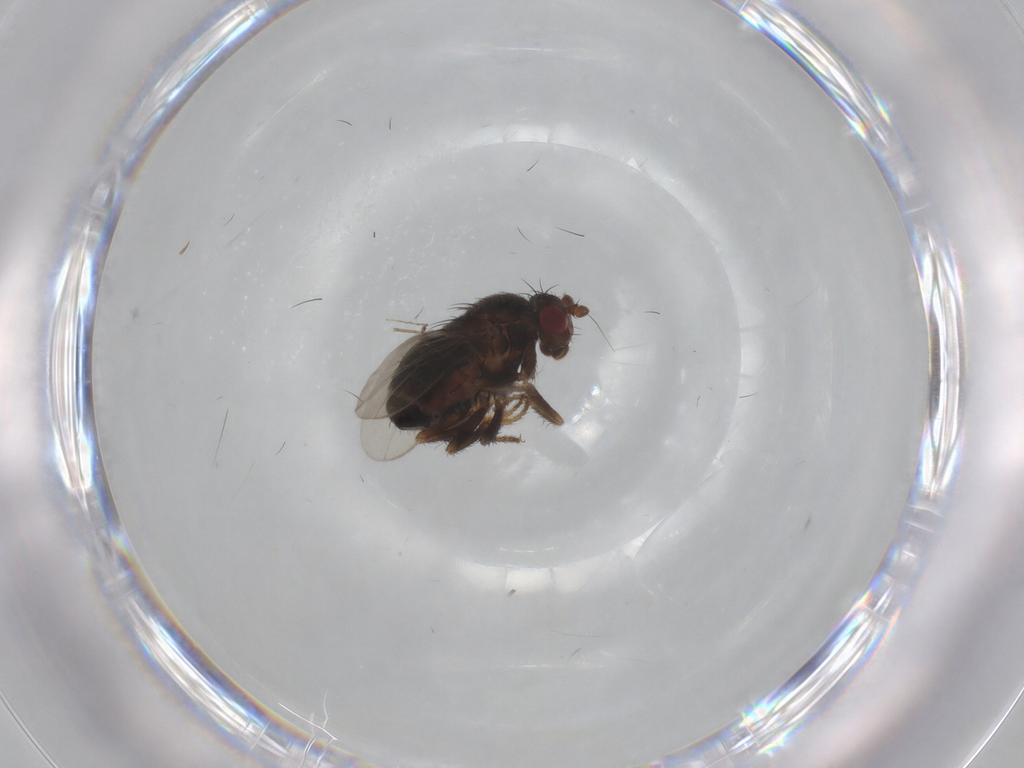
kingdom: Animalia
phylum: Arthropoda
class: Insecta
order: Diptera
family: Sphaeroceridae
